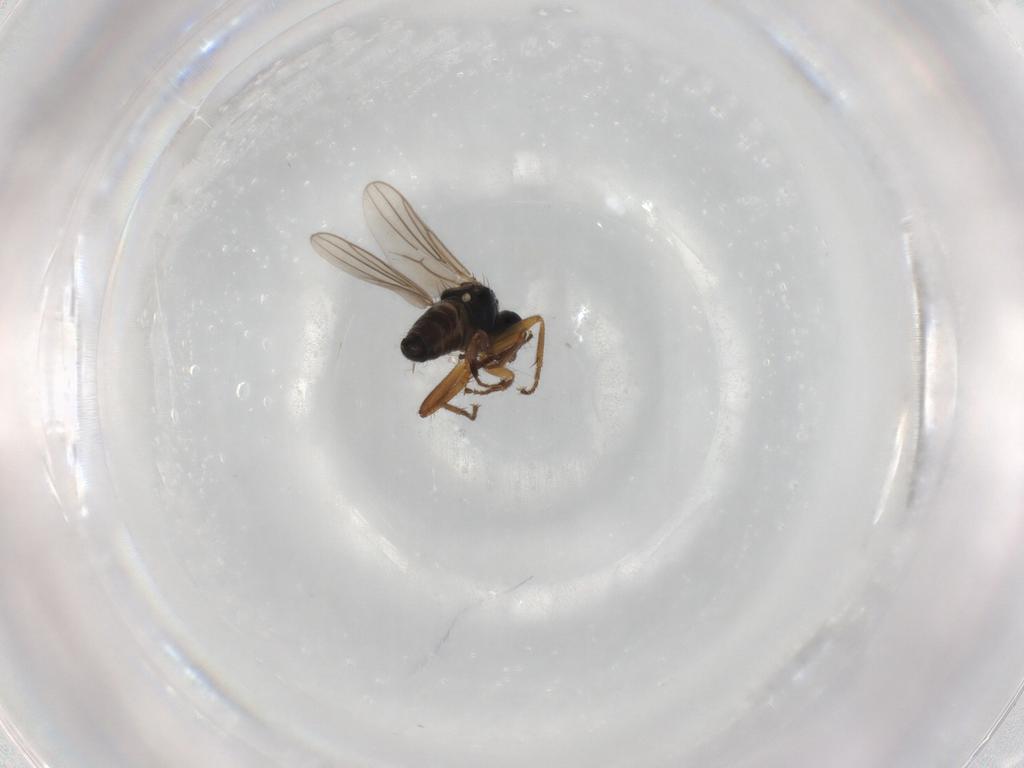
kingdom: Animalia
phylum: Arthropoda
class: Insecta
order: Diptera
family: Hybotidae
